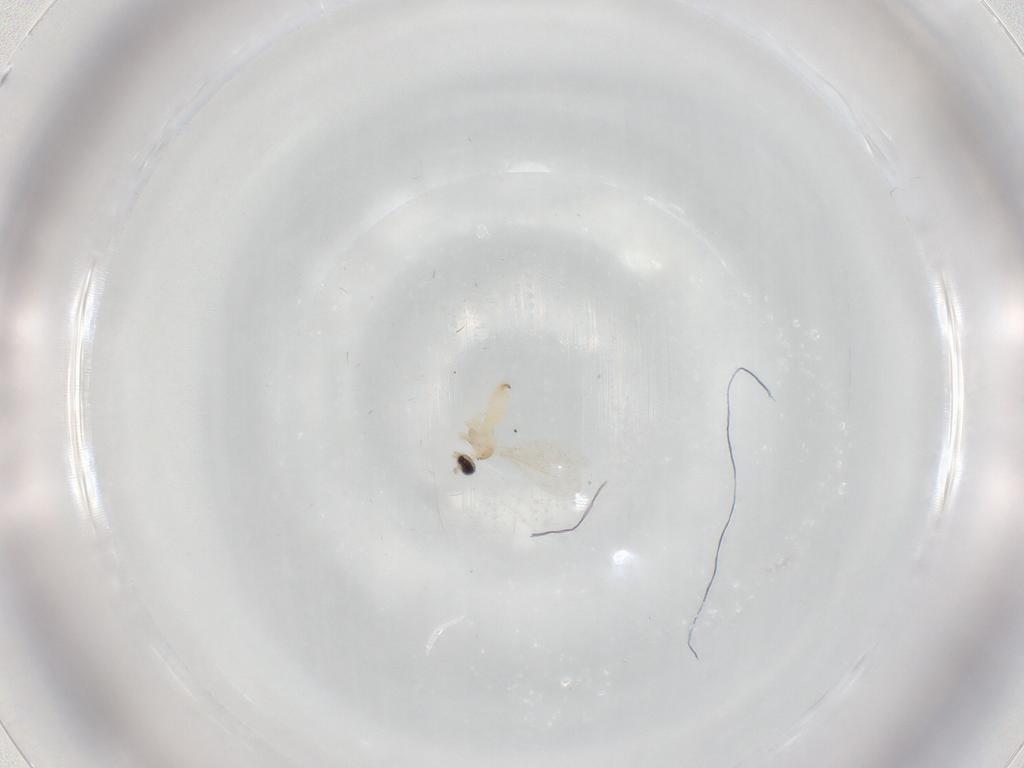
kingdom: Animalia
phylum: Arthropoda
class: Insecta
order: Diptera
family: Cecidomyiidae
